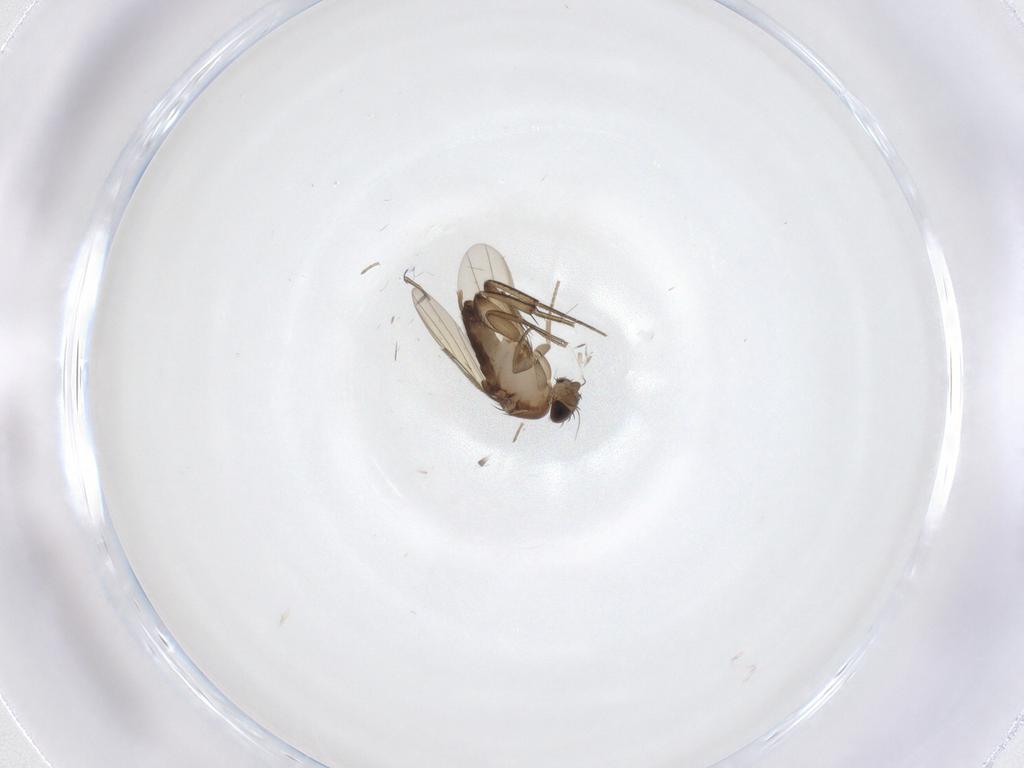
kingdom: Animalia
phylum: Arthropoda
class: Insecta
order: Diptera
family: Phoridae
